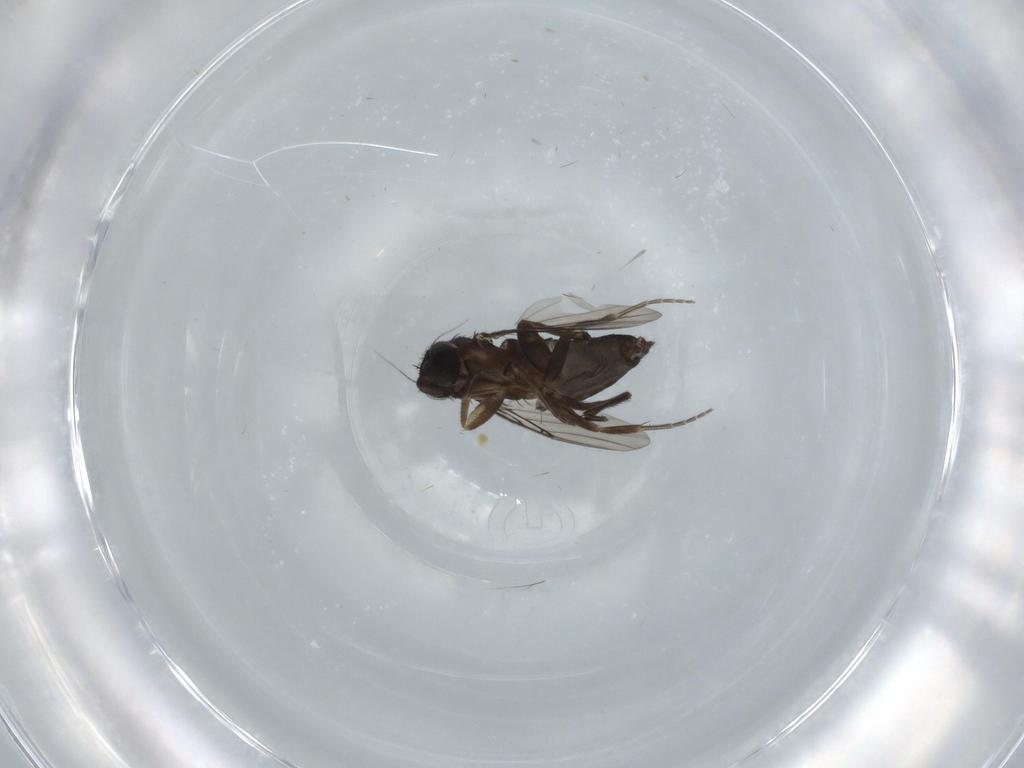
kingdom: Animalia
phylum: Arthropoda
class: Insecta
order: Diptera
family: Phoridae
